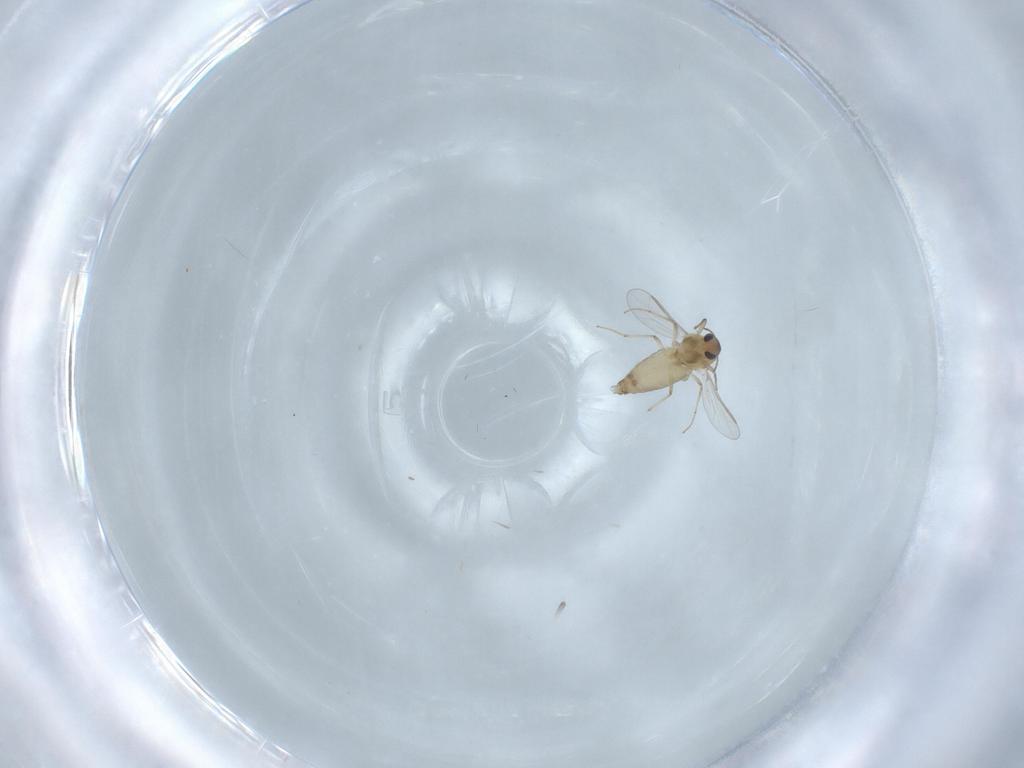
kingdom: Animalia
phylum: Arthropoda
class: Insecta
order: Diptera
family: Chironomidae
